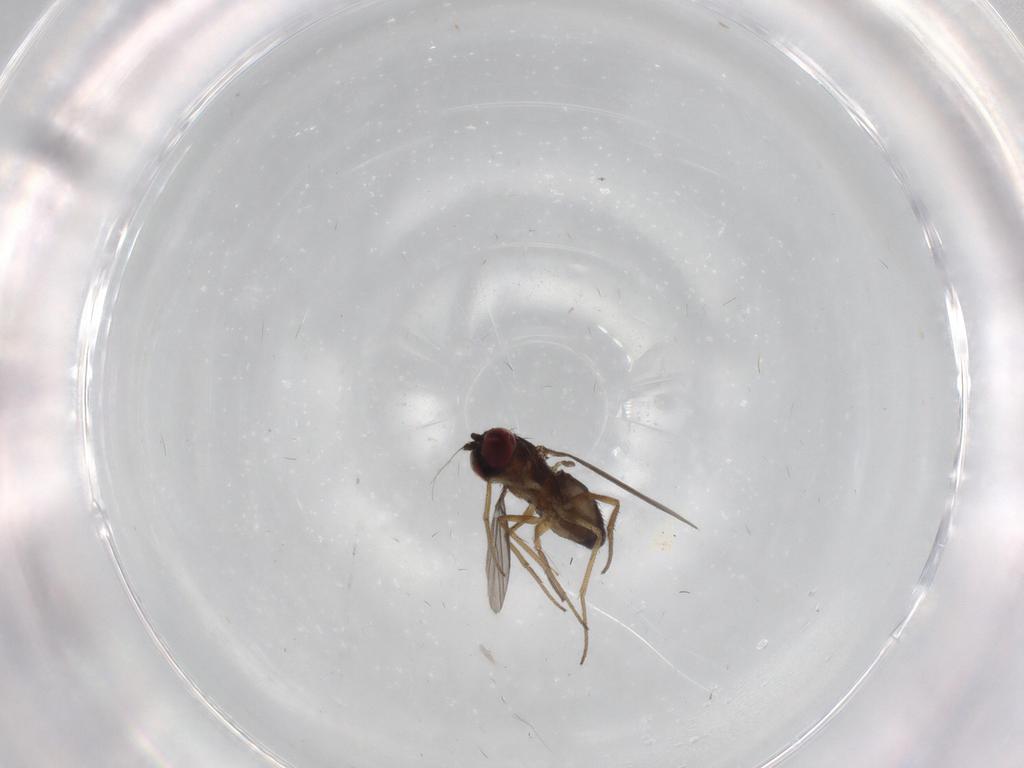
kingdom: Animalia
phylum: Arthropoda
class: Insecta
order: Diptera
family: Dolichopodidae
